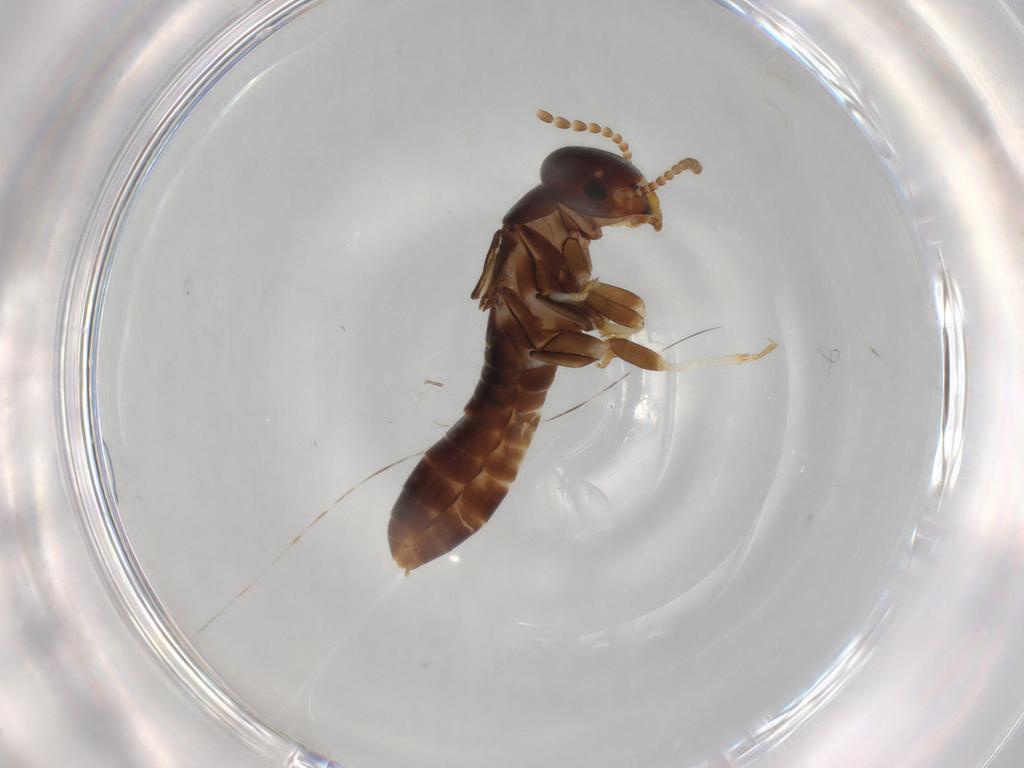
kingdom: Animalia
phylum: Arthropoda
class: Insecta
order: Blattodea
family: Kalotermitidae
